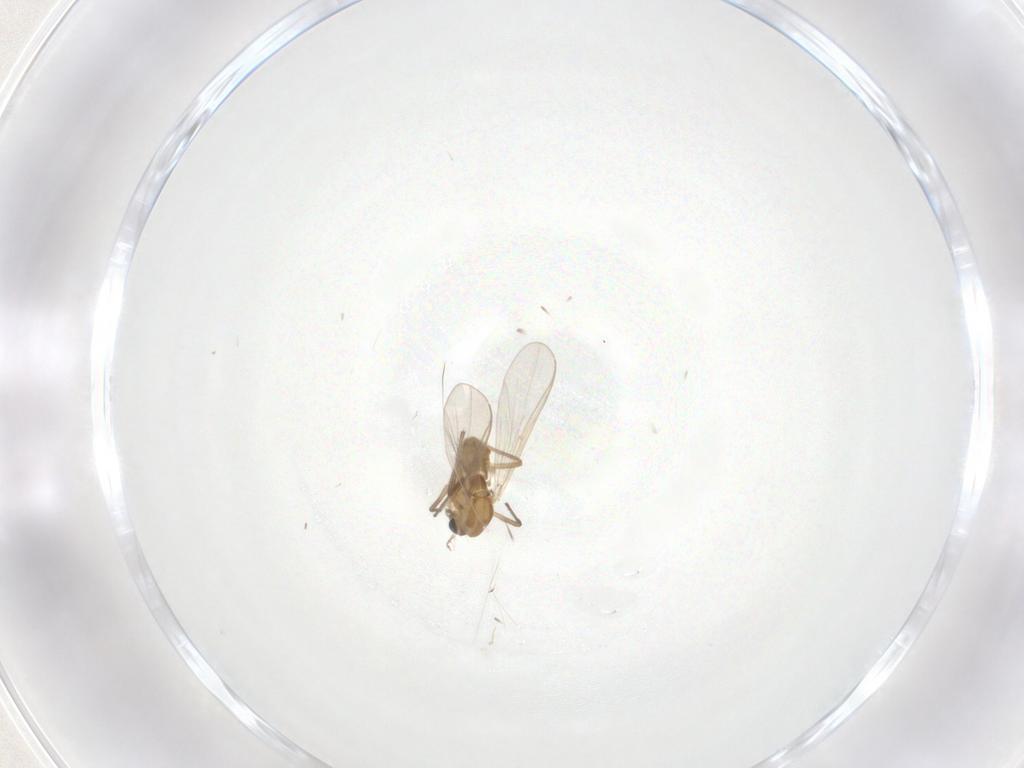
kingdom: Animalia
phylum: Arthropoda
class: Insecta
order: Diptera
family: Chironomidae
